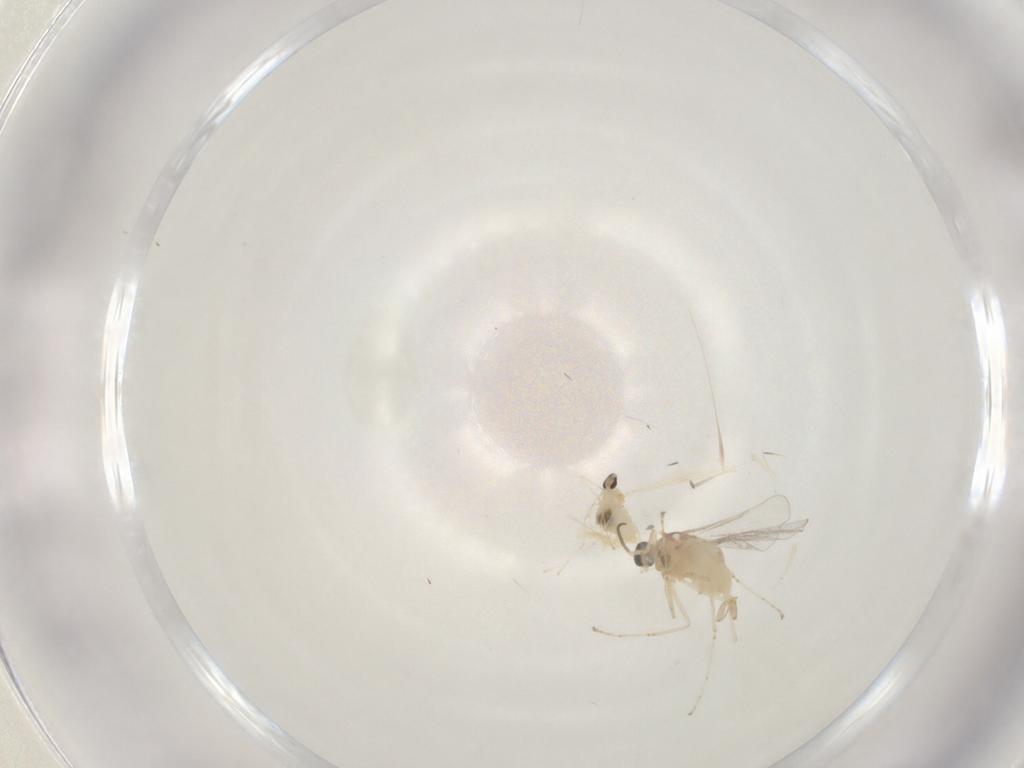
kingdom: Animalia
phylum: Arthropoda
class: Insecta
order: Diptera
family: Cecidomyiidae
